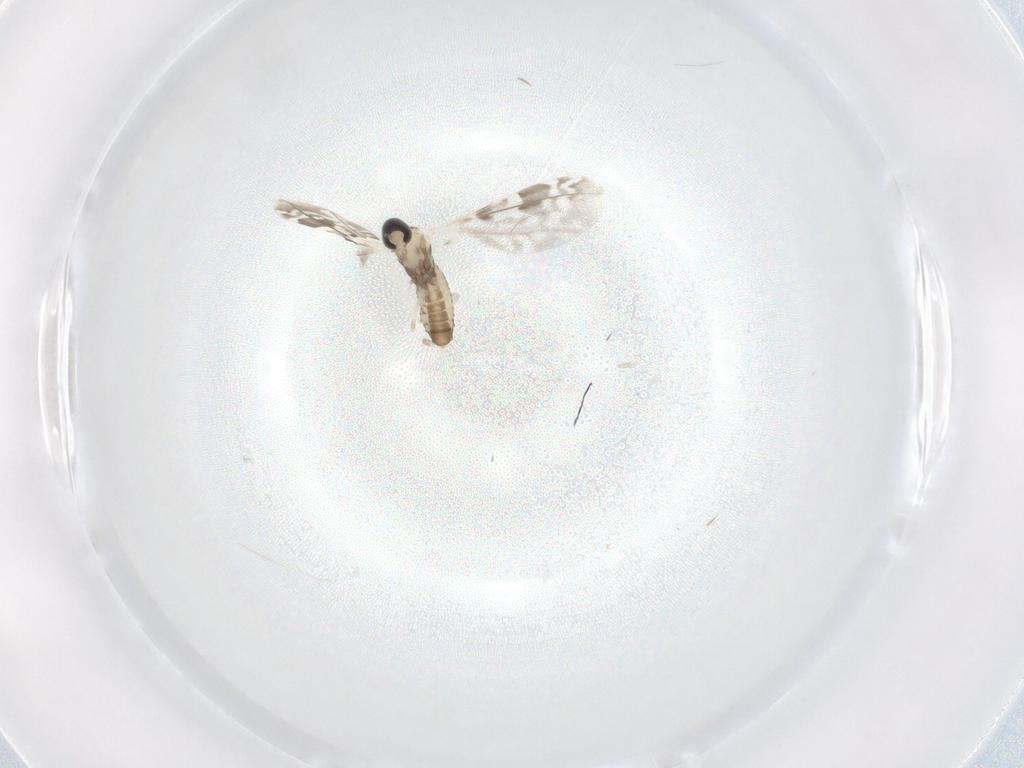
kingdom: Animalia
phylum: Arthropoda
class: Insecta
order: Diptera
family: Cecidomyiidae
